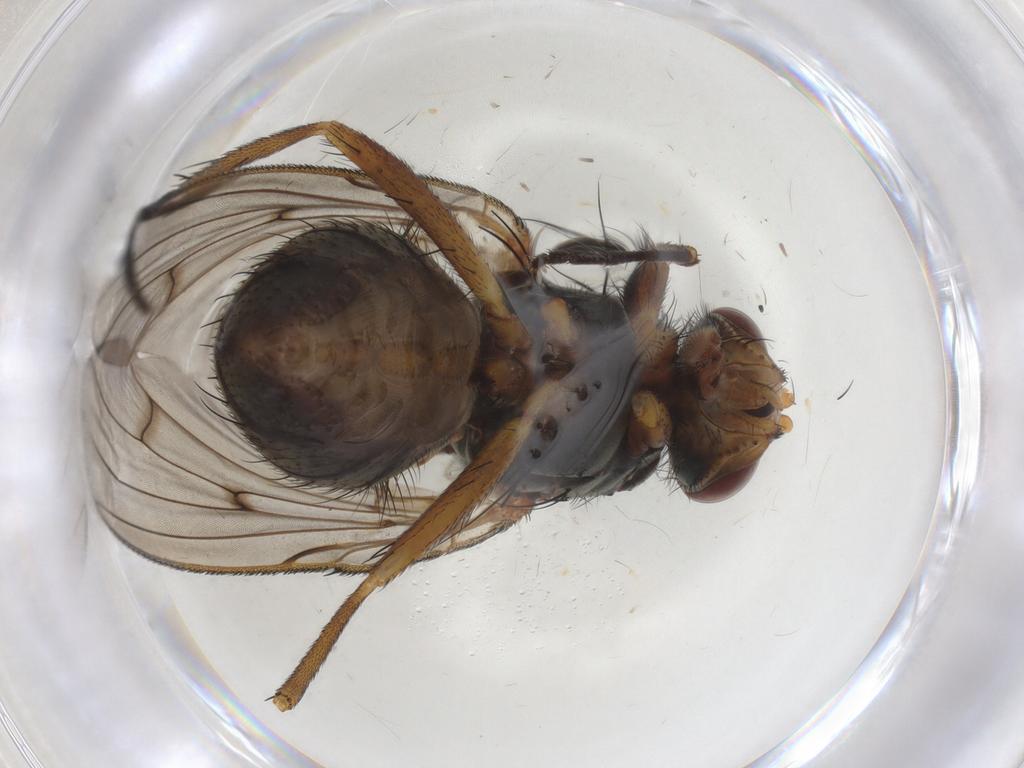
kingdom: Animalia
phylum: Arthropoda
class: Insecta
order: Diptera
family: Anthomyiidae
